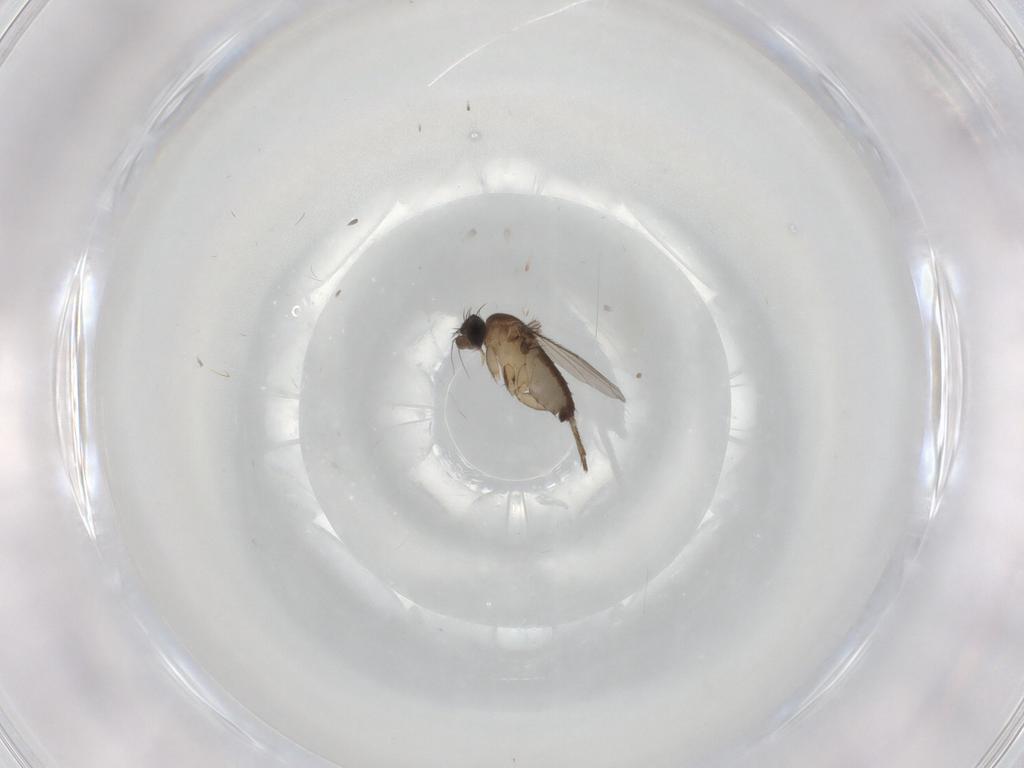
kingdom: Animalia
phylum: Arthropoda
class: Insecta
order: Diptera
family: Phoridae
